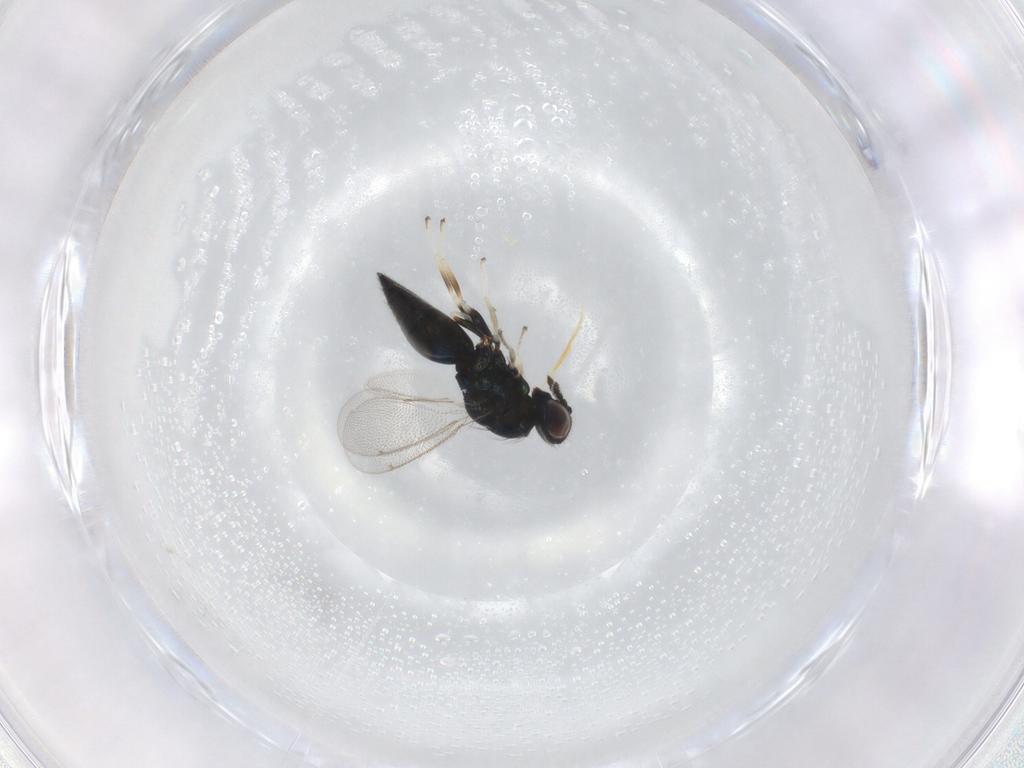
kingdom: Animalia
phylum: Arthropoda
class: Insecta
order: Hymenoptera
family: Eulophidae
